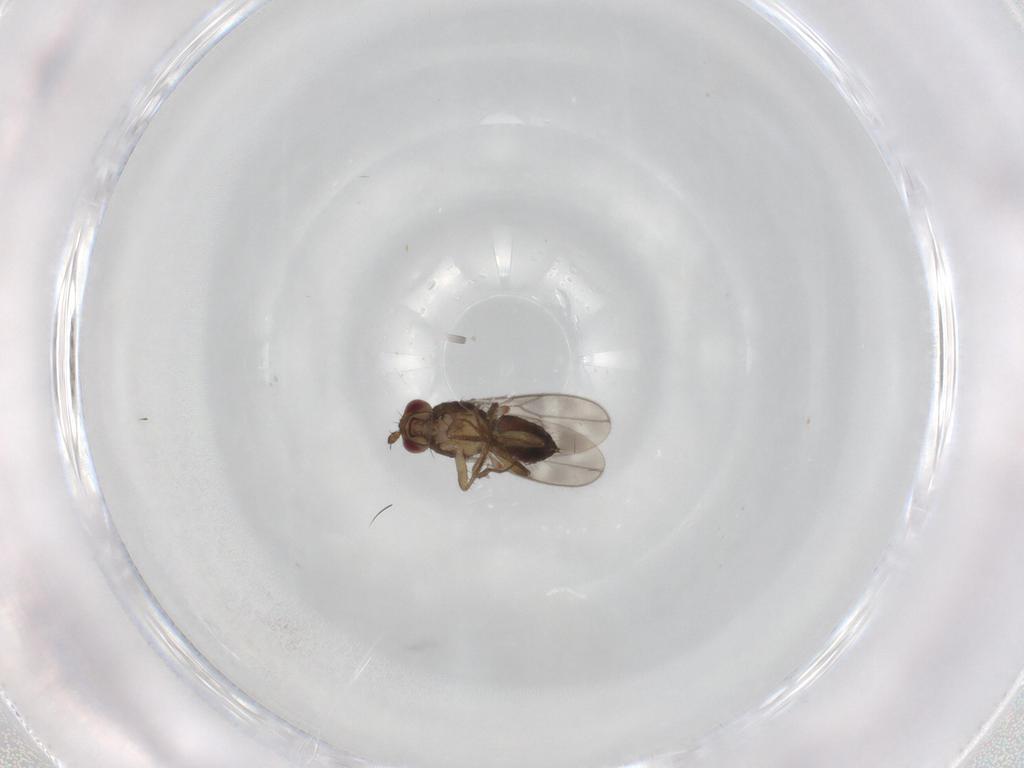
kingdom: Animalia
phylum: Arthropoda
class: Insecta
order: Diptera
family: Sphaeroceridae
